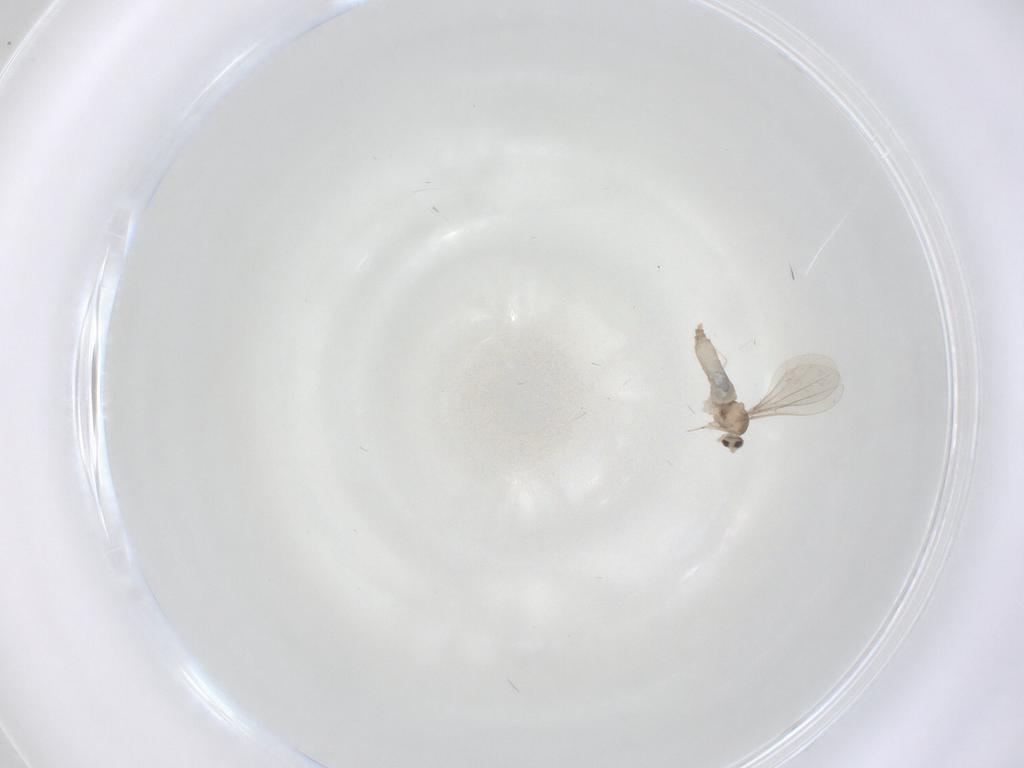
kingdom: Animalia
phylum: Arthropoda
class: Insecta
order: Diptera
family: Cecidomyiidae
